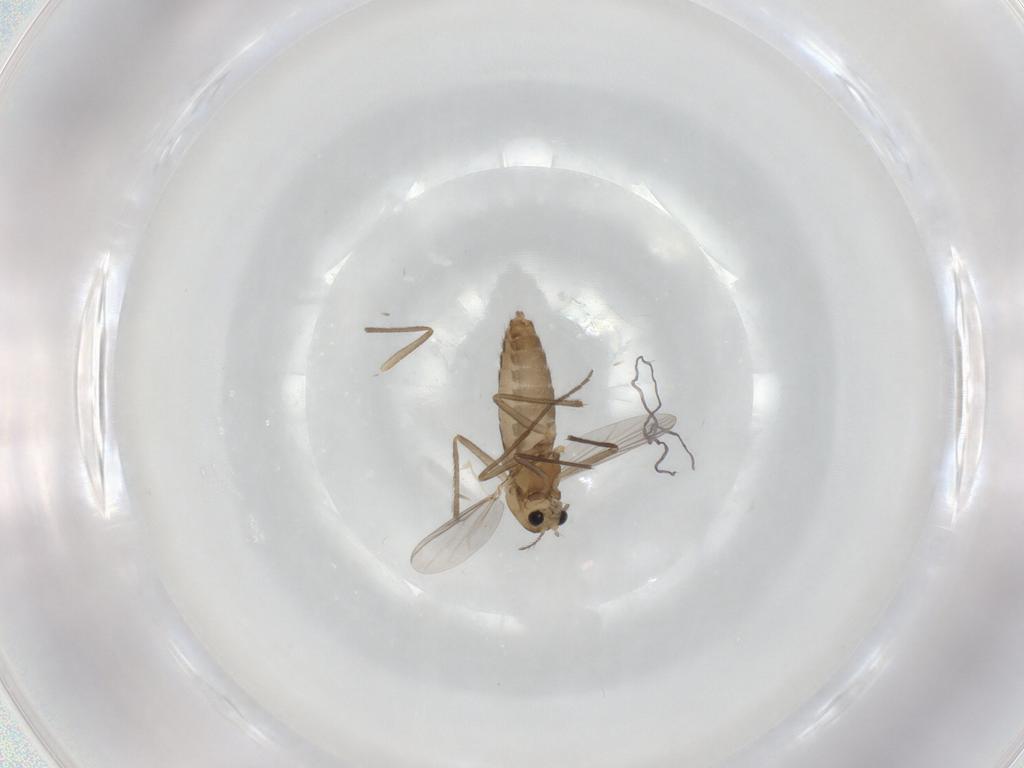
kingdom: Animalia
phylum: Arthropoda
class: Insecta
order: Diptera
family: Chironomidae
